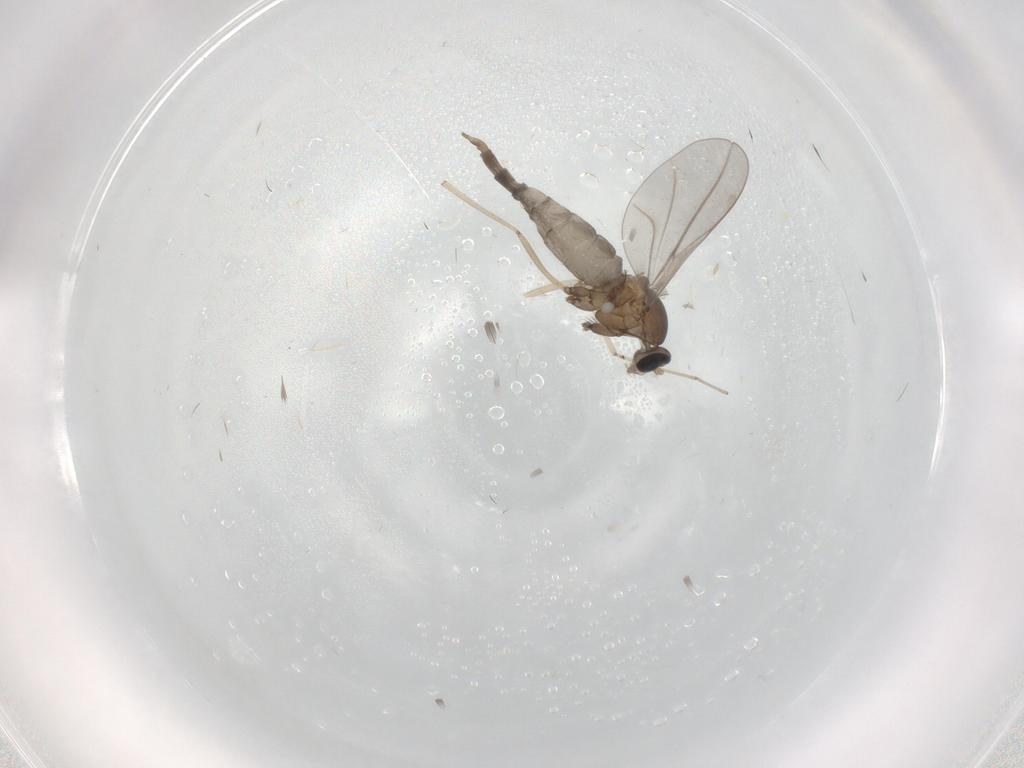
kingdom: Animalia
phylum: Arthropoda
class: Insecta
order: Diptera
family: Cecidomyiidae
